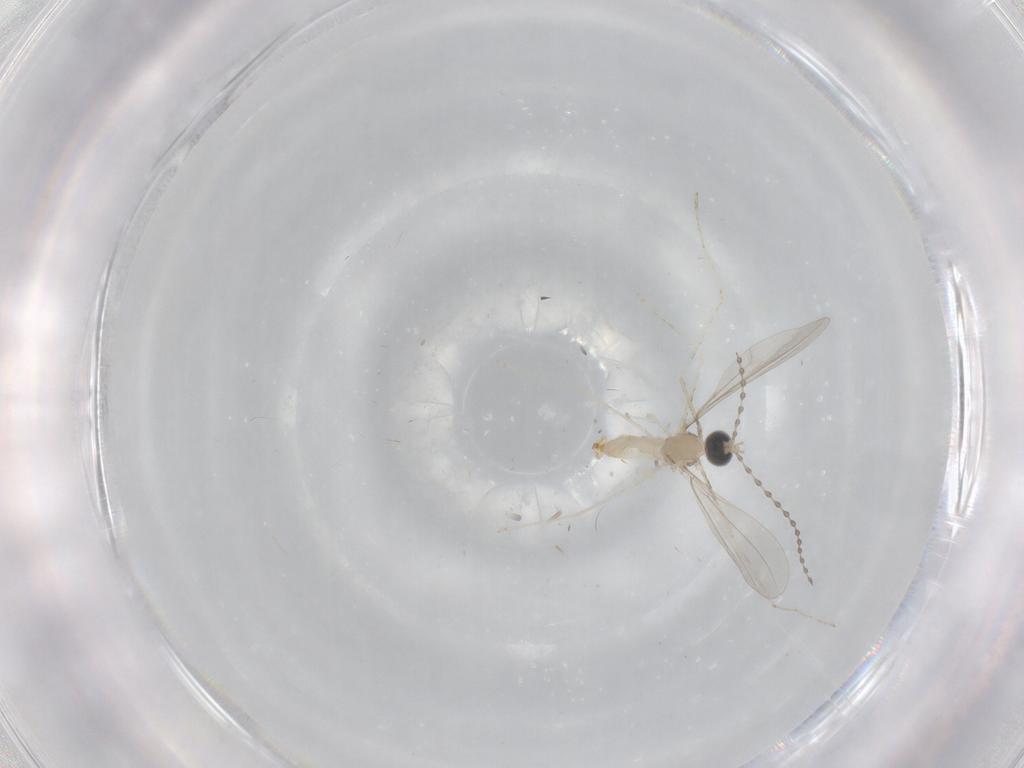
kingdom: Animalia
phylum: Arthropoda
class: Insecta
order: Diptera
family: Cecidomyiidae
